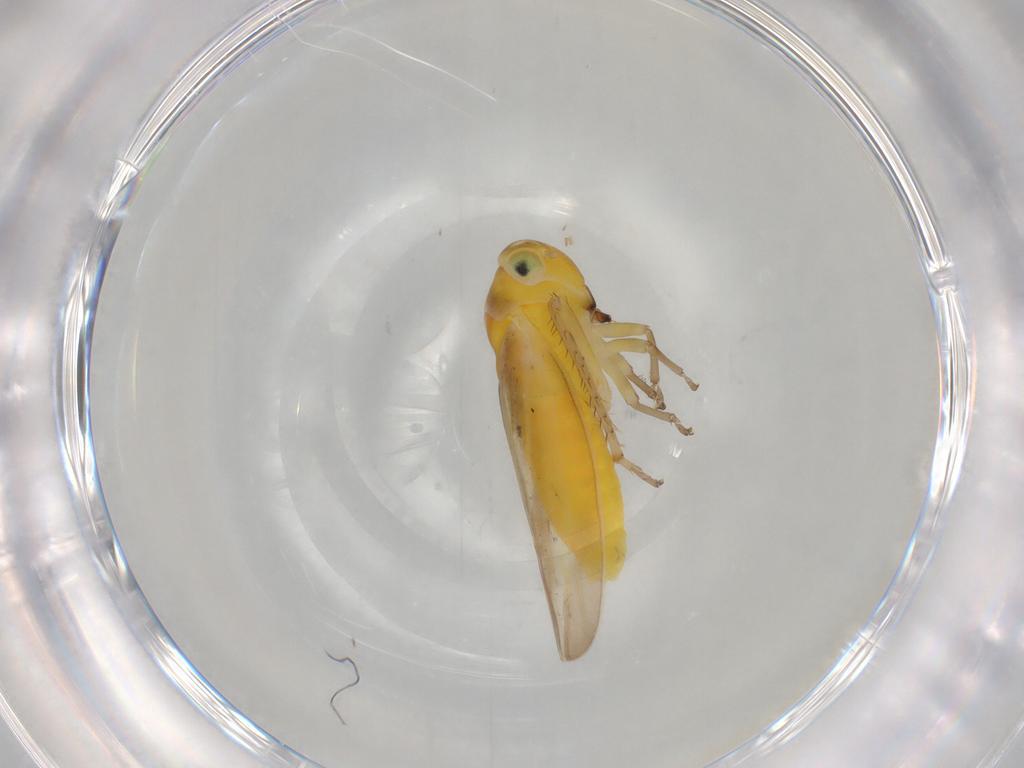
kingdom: Animalia
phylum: Arthropoda
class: Insecta
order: Hemiptera
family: Cicadellidae
